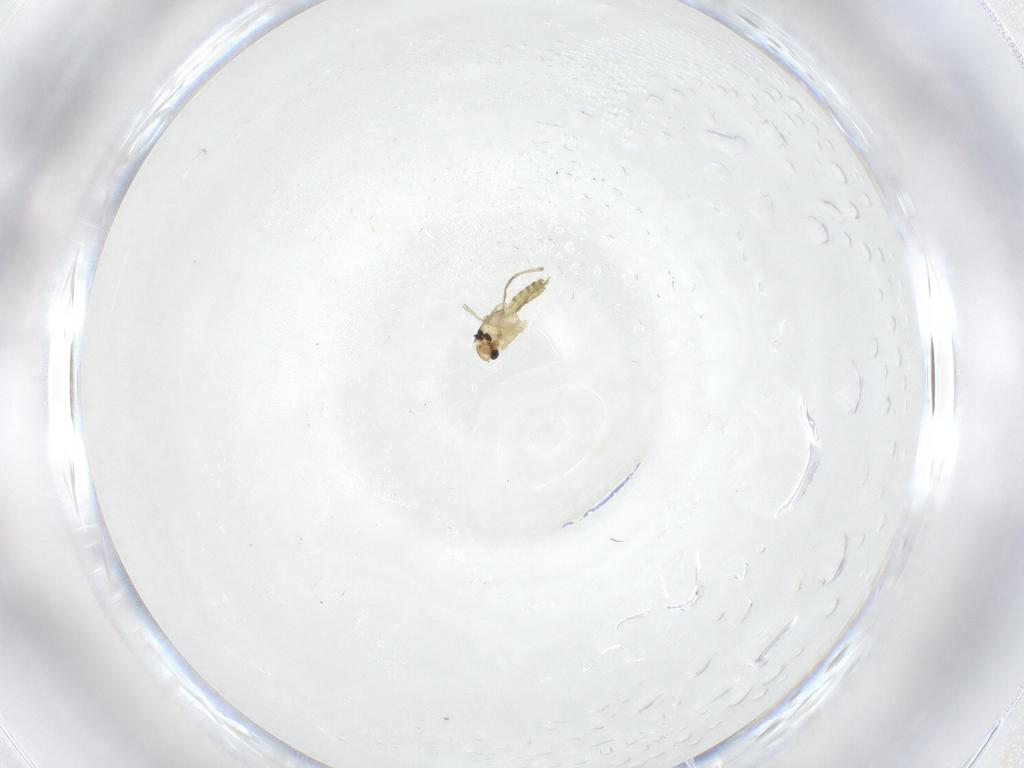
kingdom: Animalia
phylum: Arthropoda
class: Insecta
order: Diptera
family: Chironomidae
